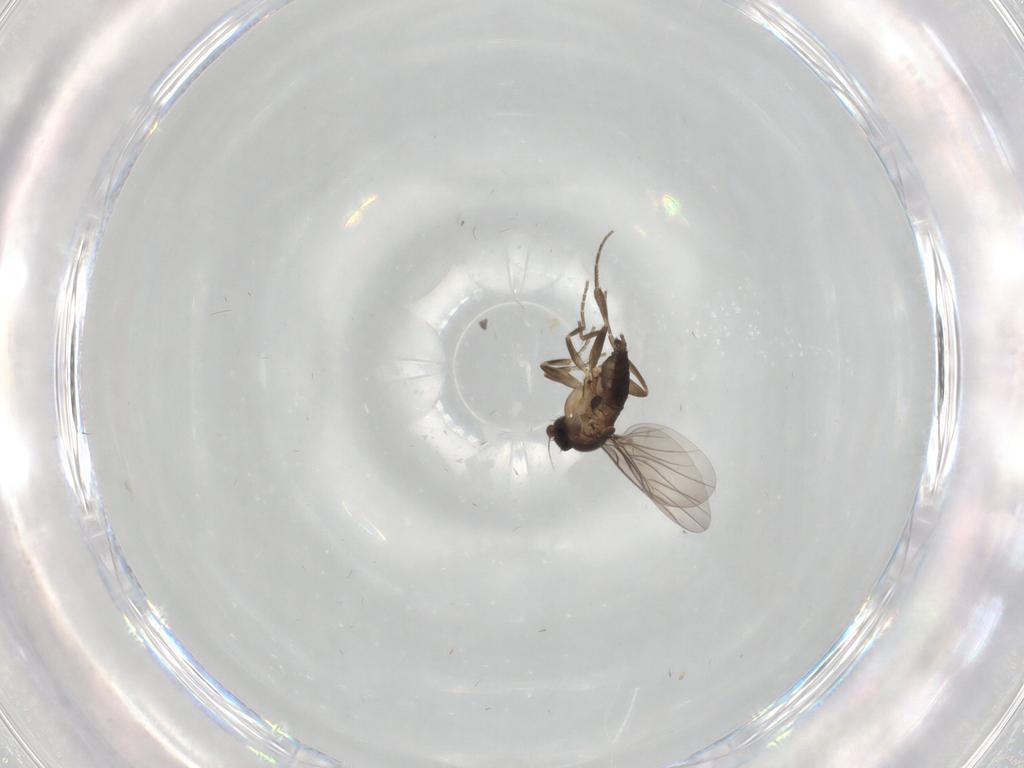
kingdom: Animalia
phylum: Arthropoda
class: Insecta
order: Diptera
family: Phoridae
